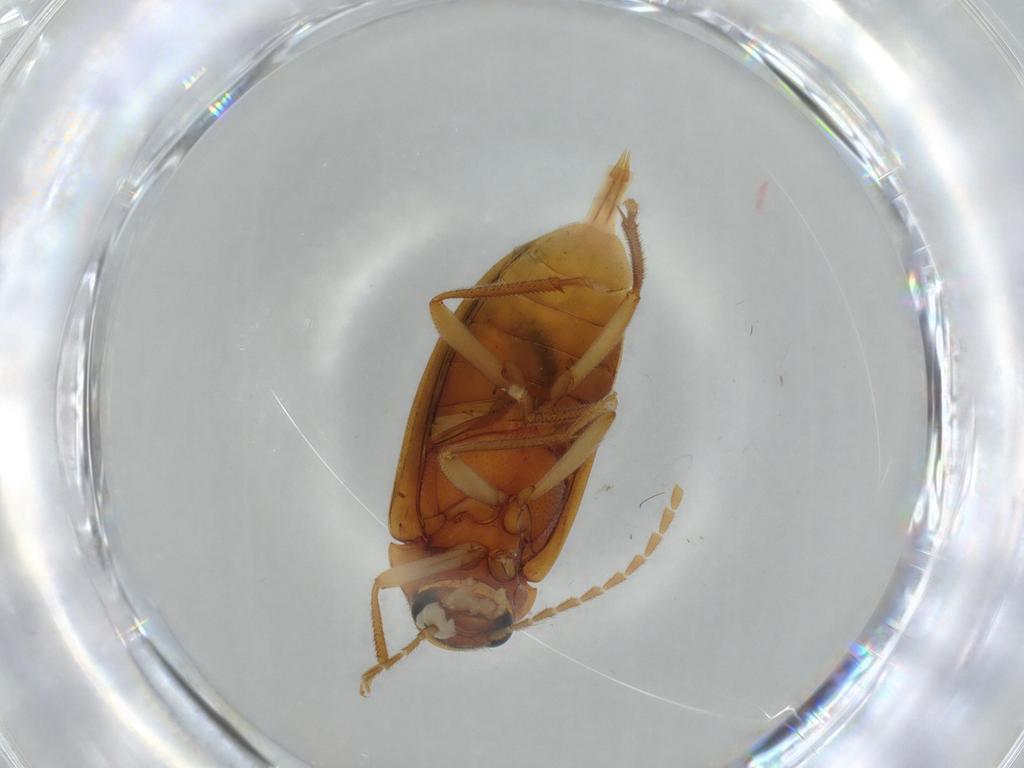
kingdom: Animalia
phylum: Arthropoda
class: Insecta
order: Coleoptera
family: Ptilodactylidae
